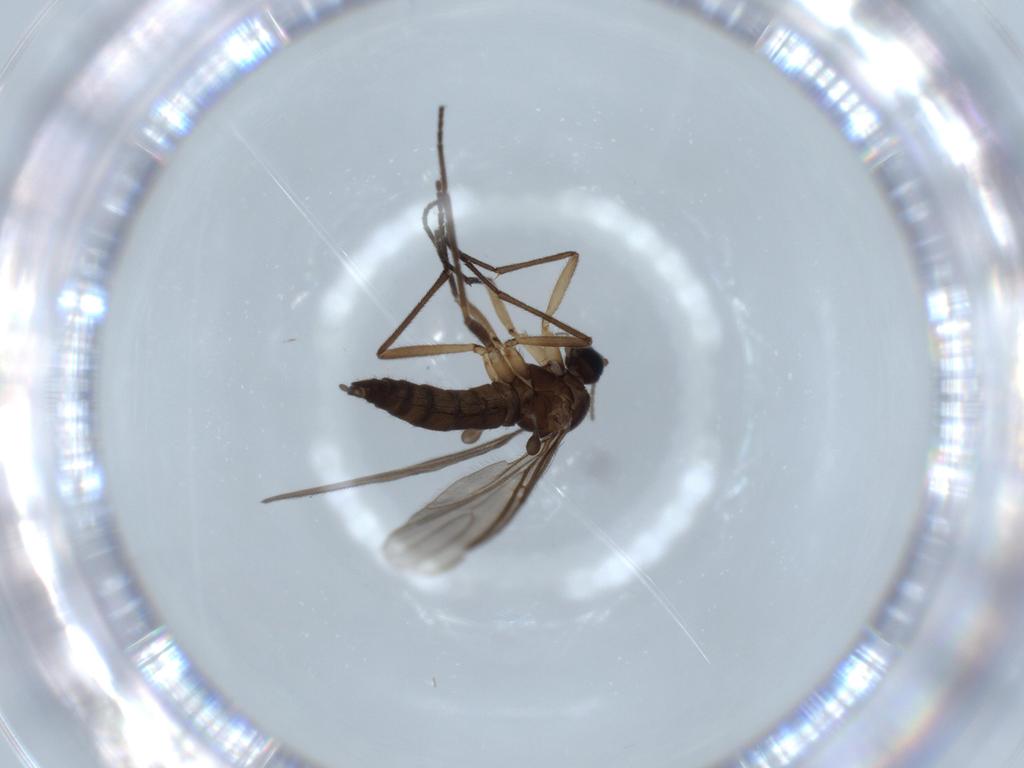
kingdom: Animalia
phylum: Arthropoda
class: Insecta
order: Diptera
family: Sciaridae
